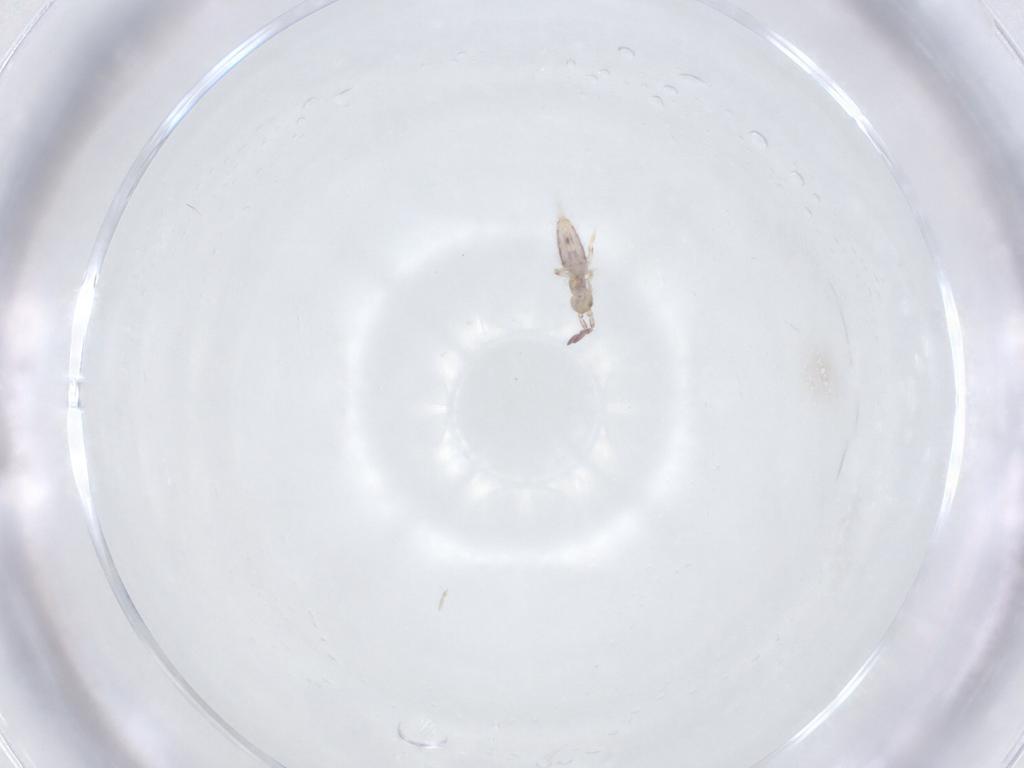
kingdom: Animalia
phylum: Arthropoda
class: Collembola
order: Entomobryomorpha
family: Entomobryidae
